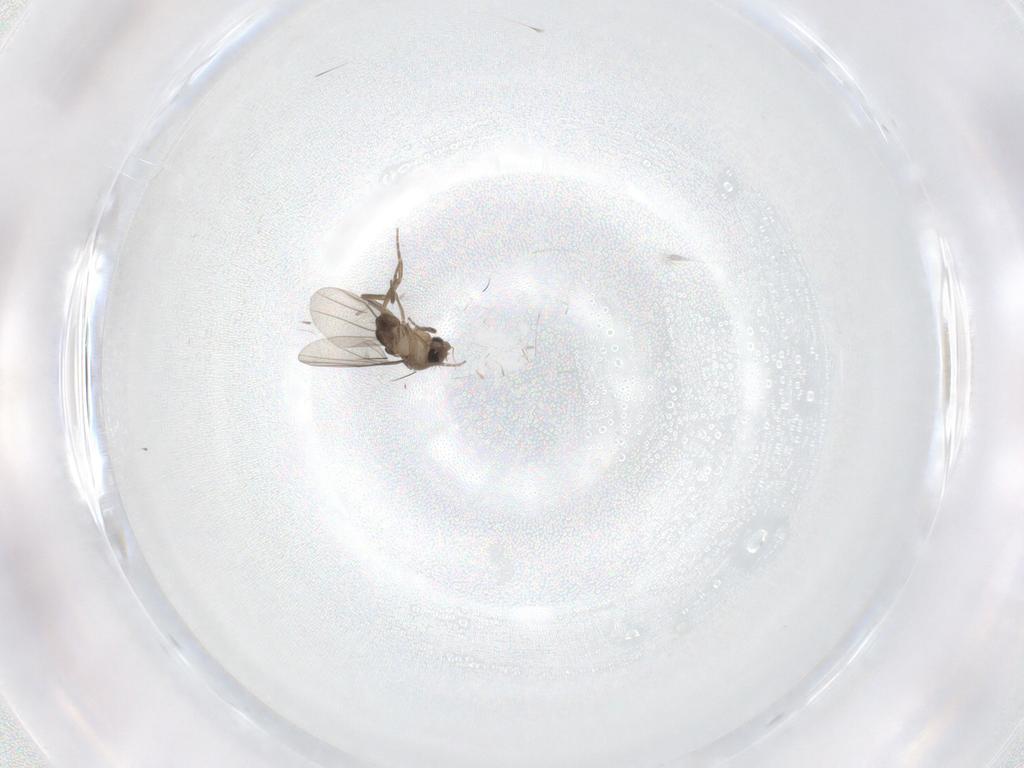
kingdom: Animalia
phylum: Arthropoda
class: Insecta
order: Diptera
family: Phoridae
